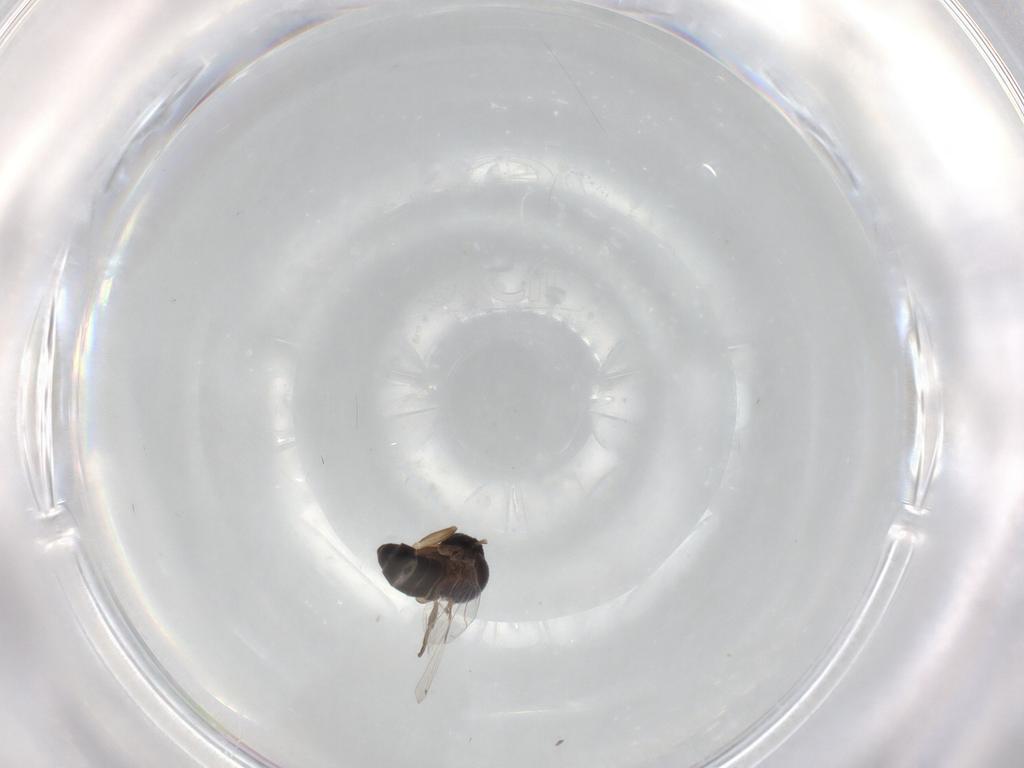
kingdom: Animalia
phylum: Arthropoda
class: Insecta
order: Diptera
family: Phoridae
